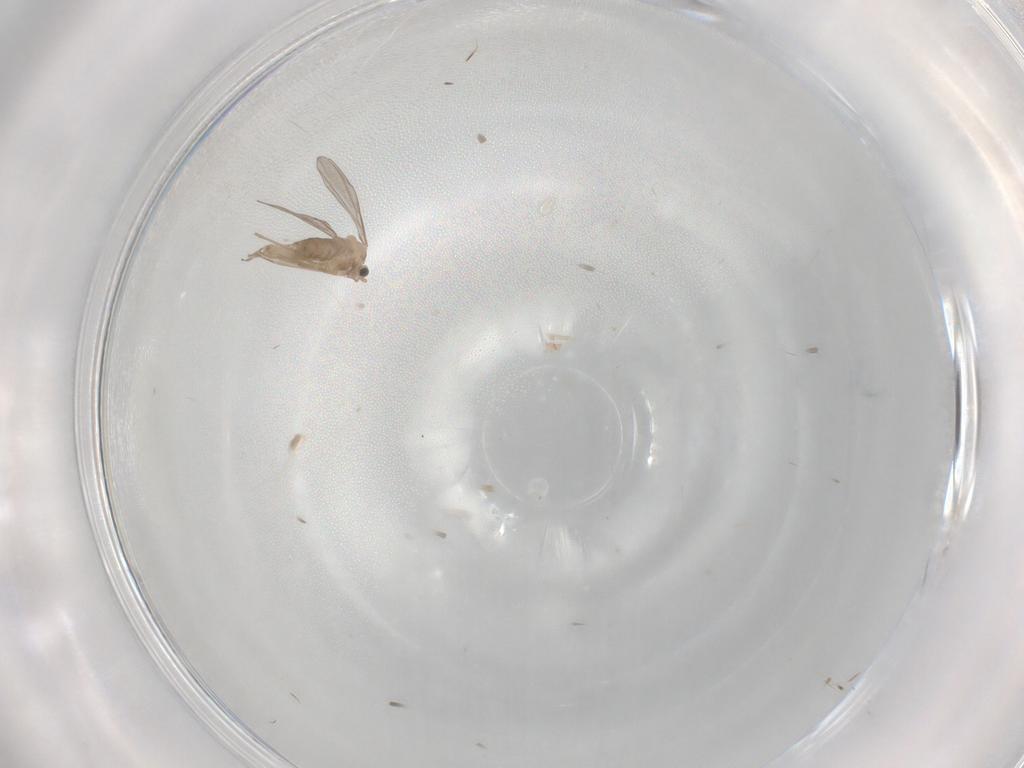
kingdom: Animalia
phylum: Arthropoda
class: Insecta
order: Diptera
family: Cecidomyiidae
